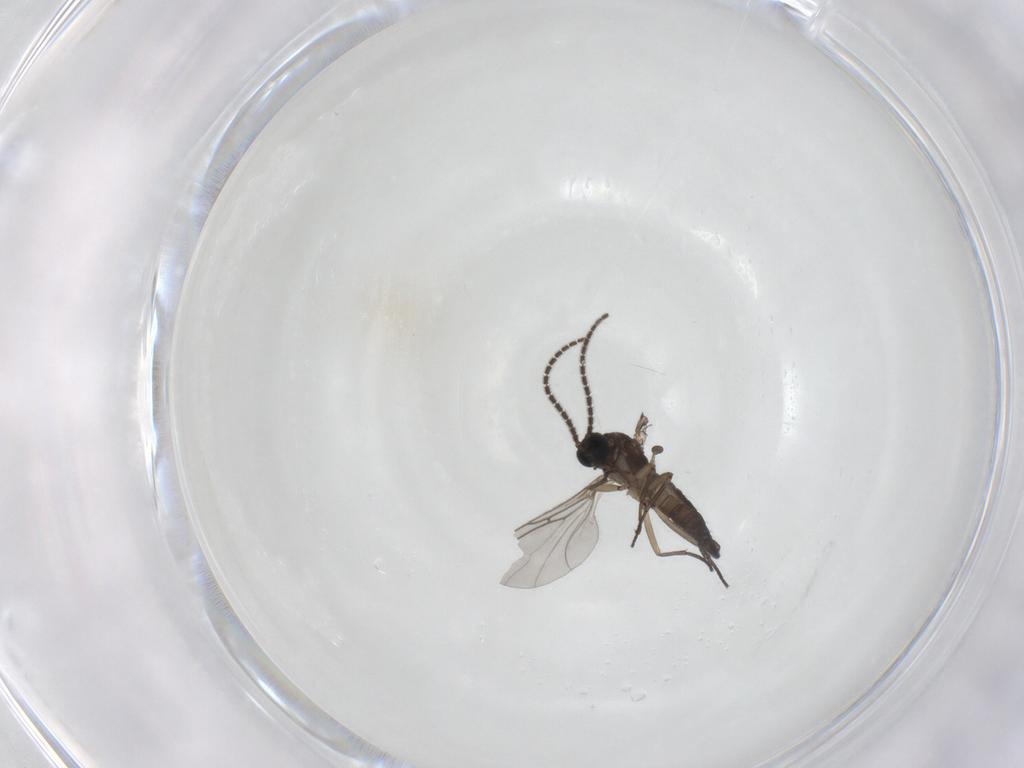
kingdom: Animalia
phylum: Arthropoda
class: Insecta
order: Diptera
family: Sciaridae
